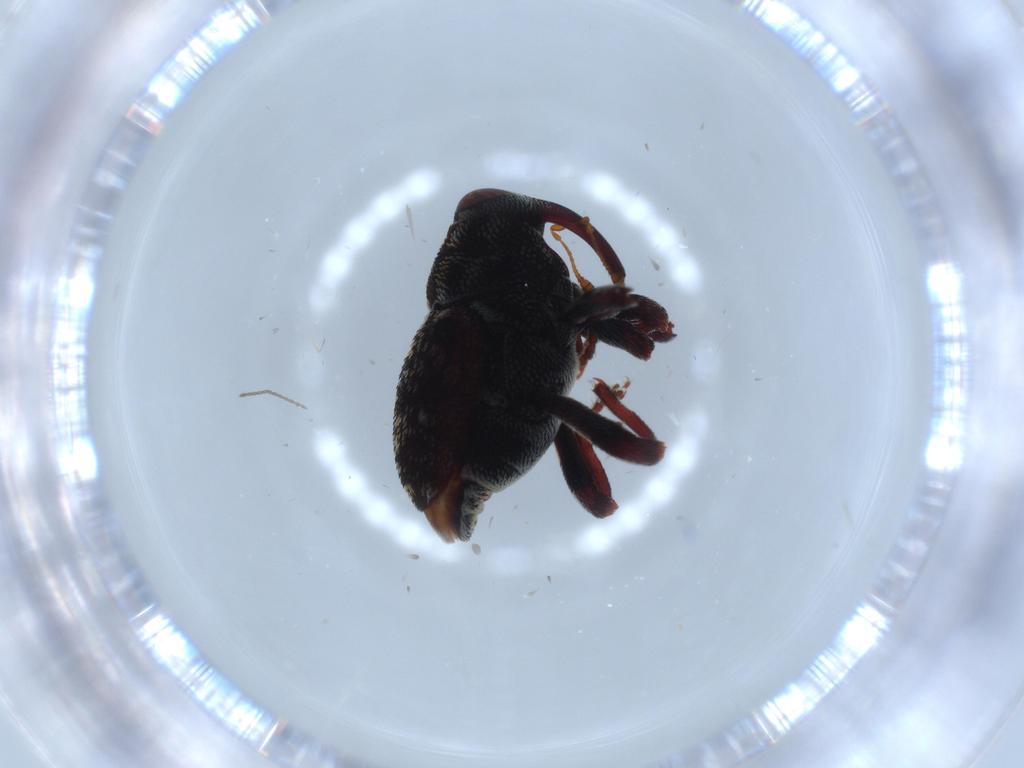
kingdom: Animalia
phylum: Arthropoda
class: Insecta
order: Coleoptera
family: Curculionidae
